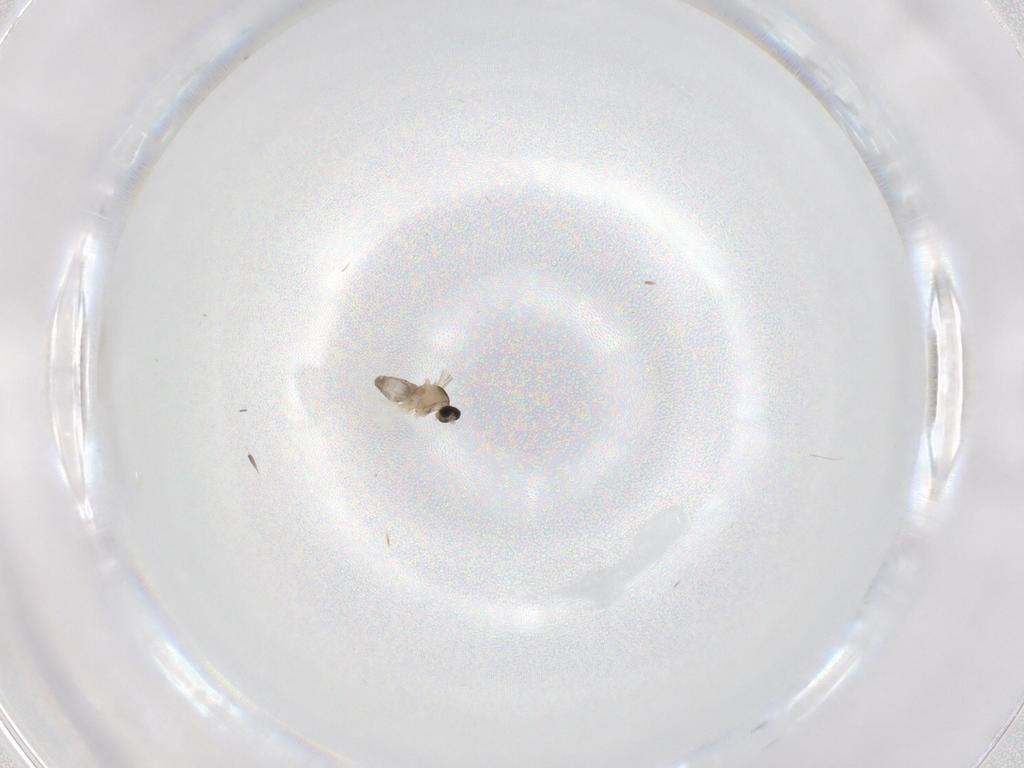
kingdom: Animalia
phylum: Arthropoda
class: Insecta
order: Diptera
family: Cecidomyiidae
